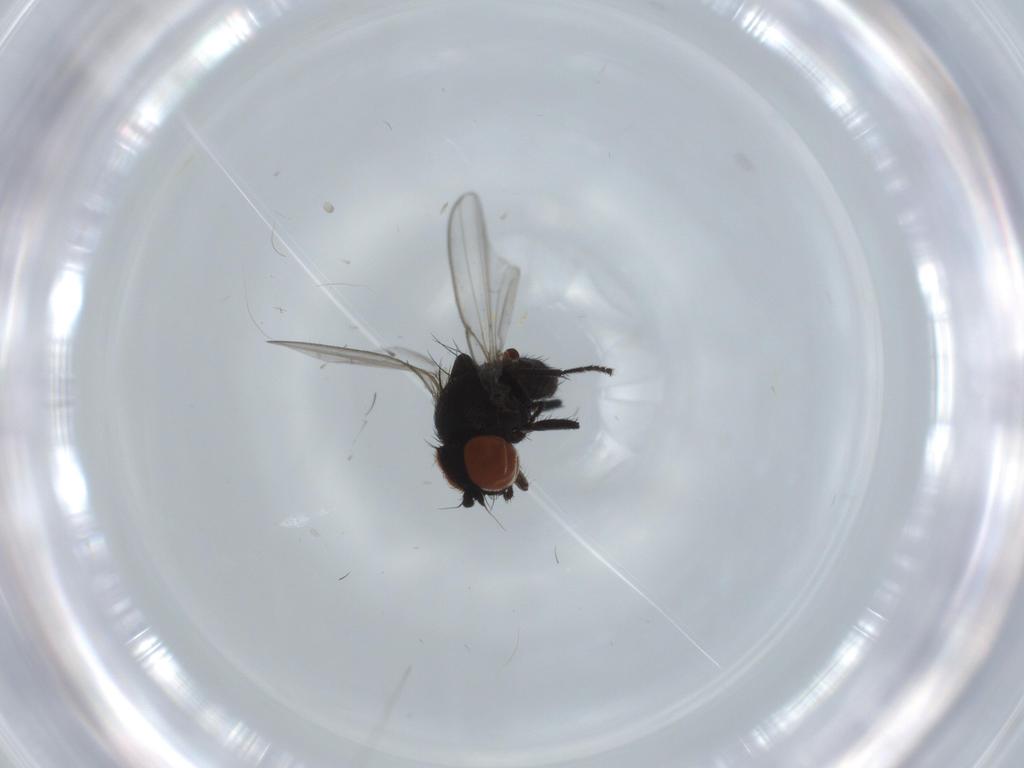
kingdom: Animalia
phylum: Arthropoda
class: Insecta
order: Diptera
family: Milichiidae
